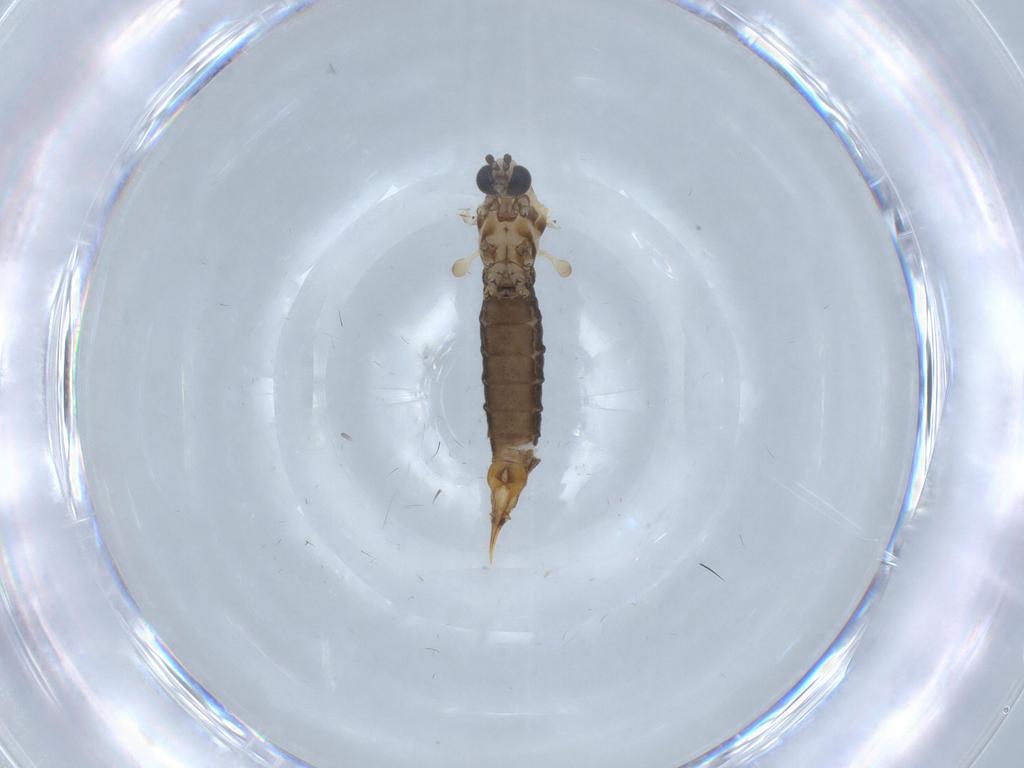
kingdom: Animalia
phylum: Arthropoda
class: Insecta
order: Diptera
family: Limoniidae
